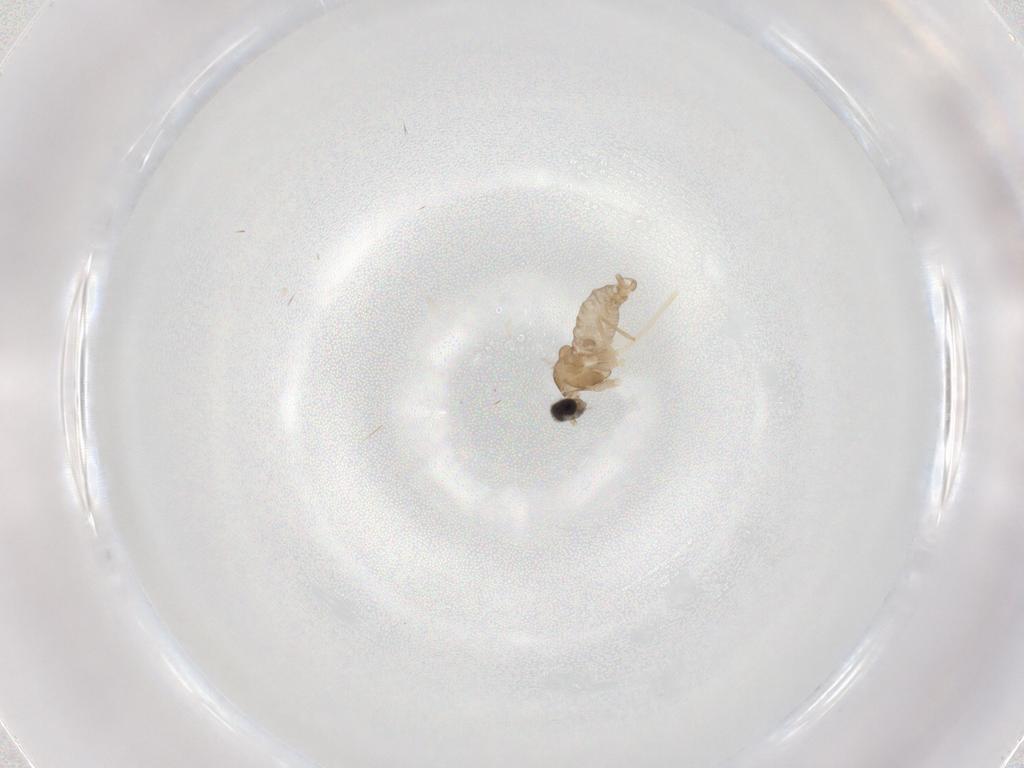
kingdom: Animalia
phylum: Arthropoda
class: Insecta
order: Diptera
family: Cecidomyiidae
